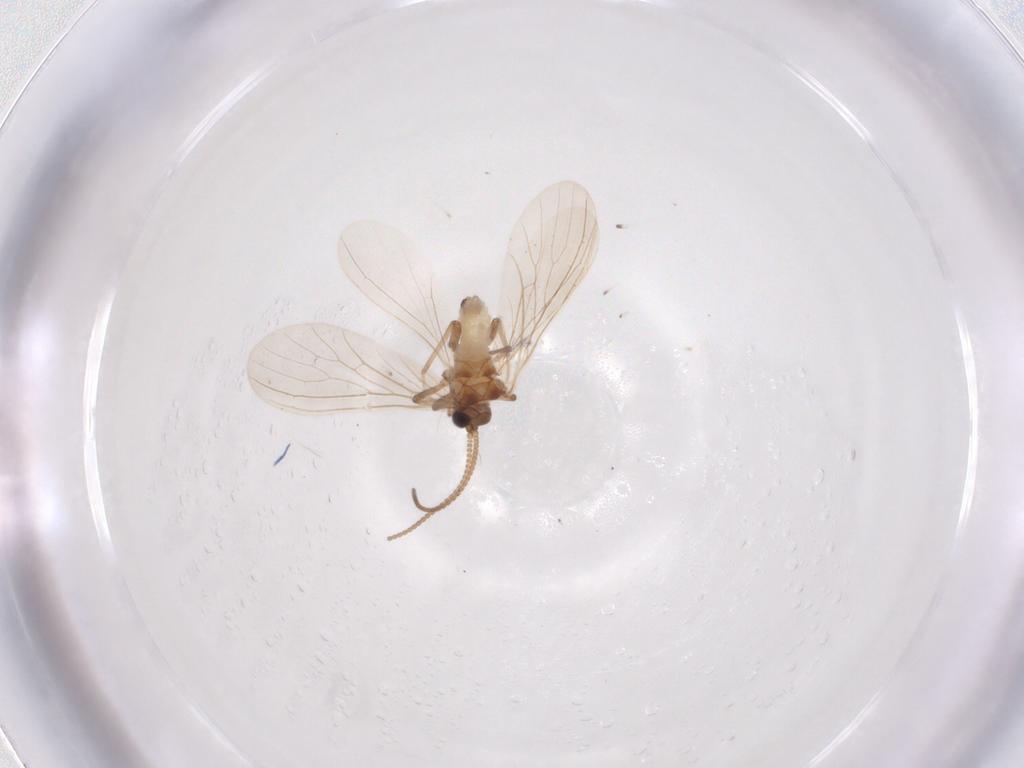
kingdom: Animalia
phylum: Arthropoda
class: Insecta
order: Neuroptera
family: Coniopterygidae
